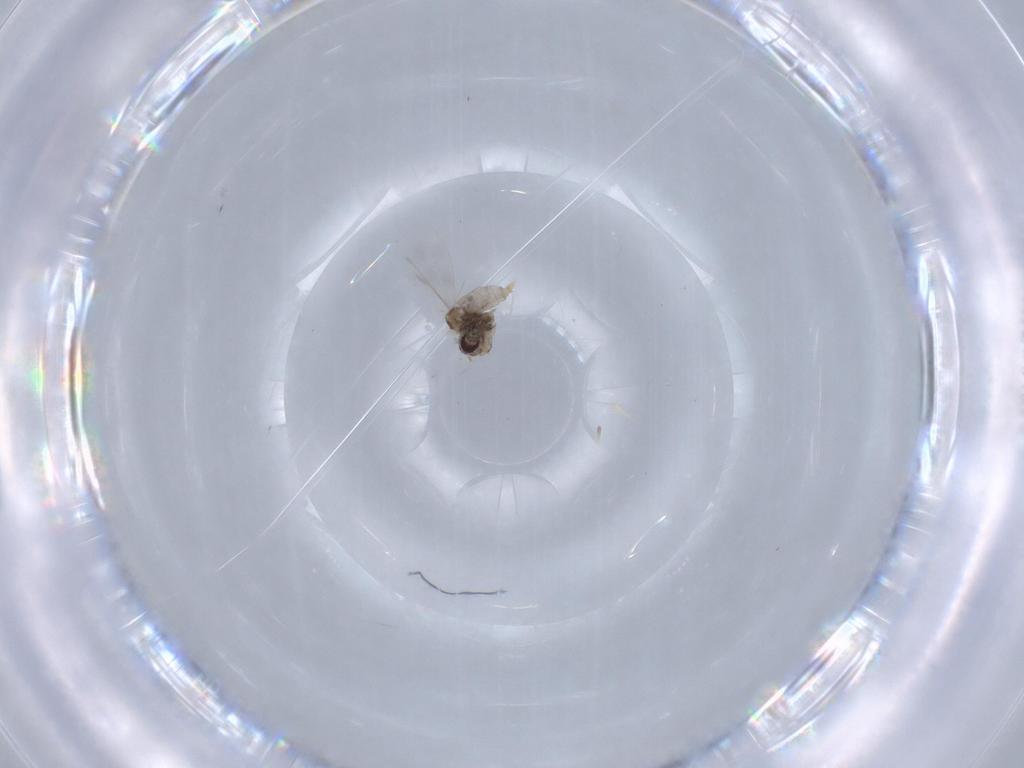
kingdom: Animalia
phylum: Arthropoda
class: Insecta
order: Diptera
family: Cecidomyiidae
